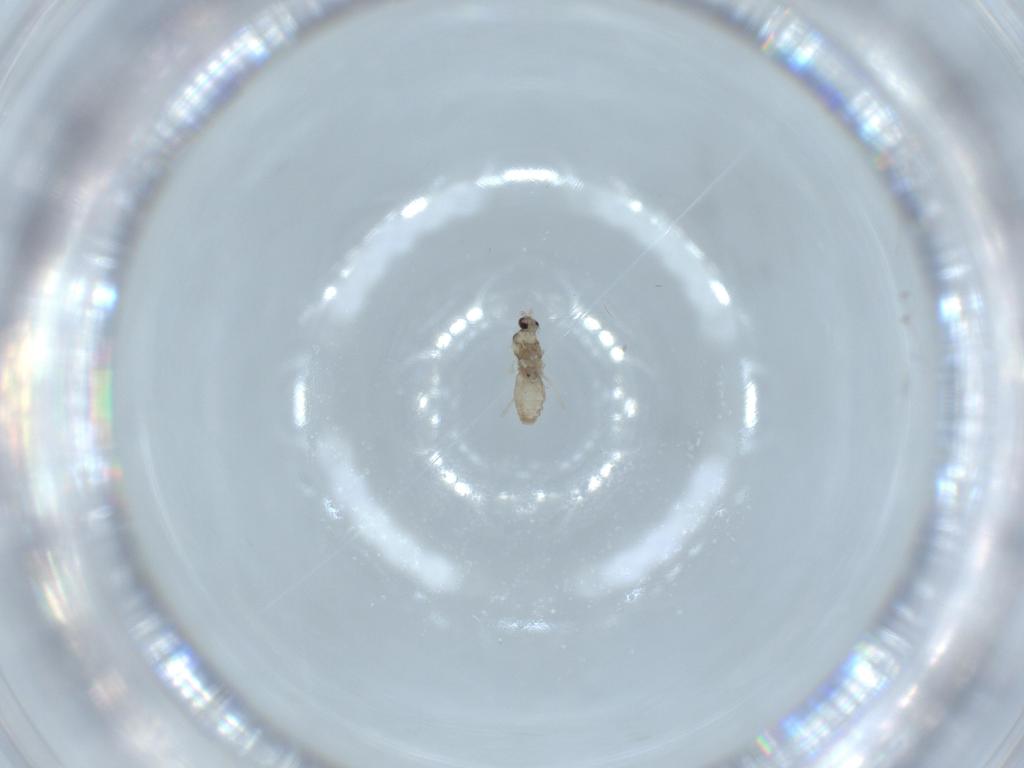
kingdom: Animalia
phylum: Arthropoda
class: Insecta
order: Diptera
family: Cecidomyiidae
